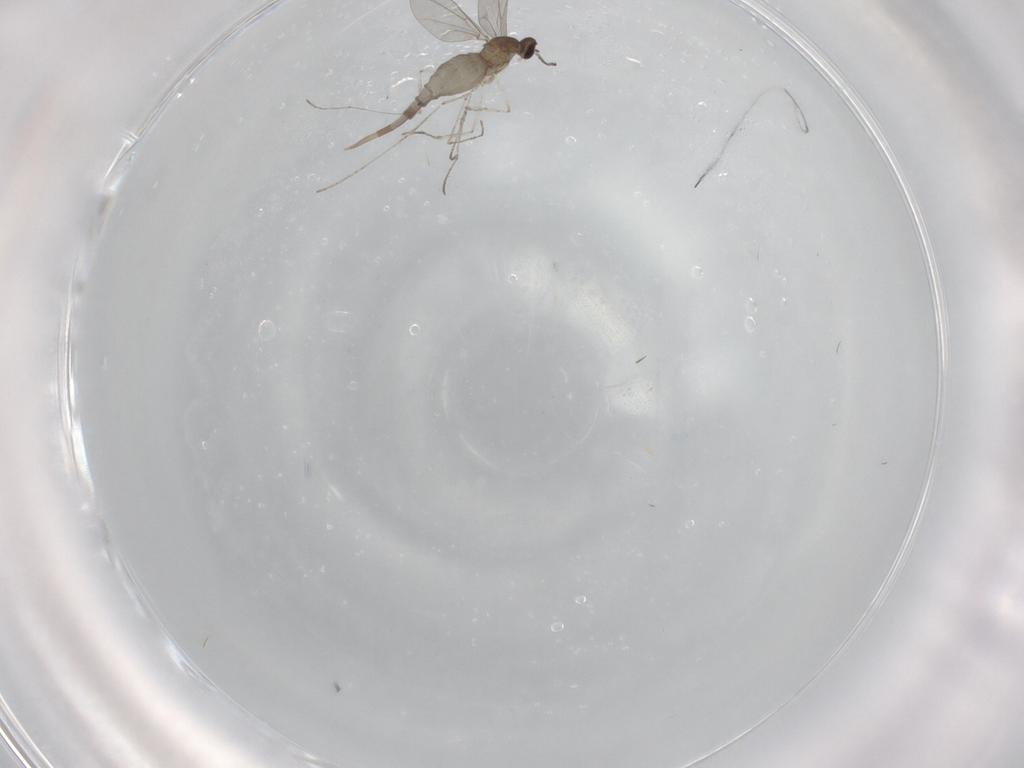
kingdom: Animalia
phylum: Arthropoda
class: Insecta
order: Diptera
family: Cecidomyiidae
